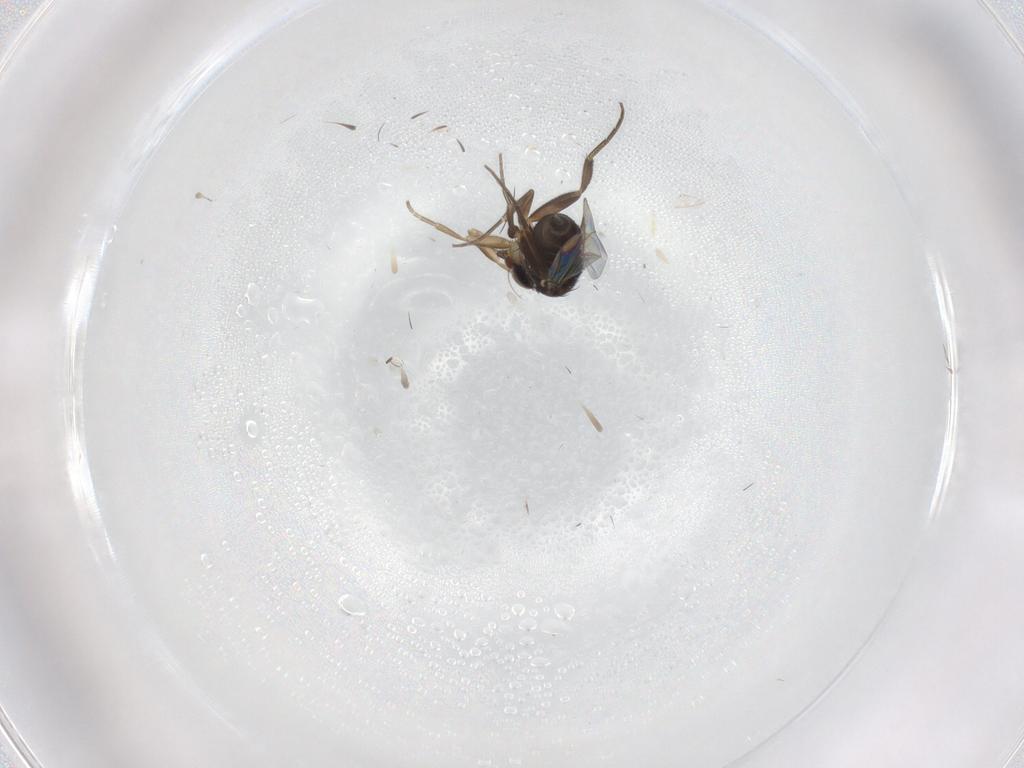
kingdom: Animalia
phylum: Arthropoda
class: Insecta
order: Diptera
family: Phoridae
